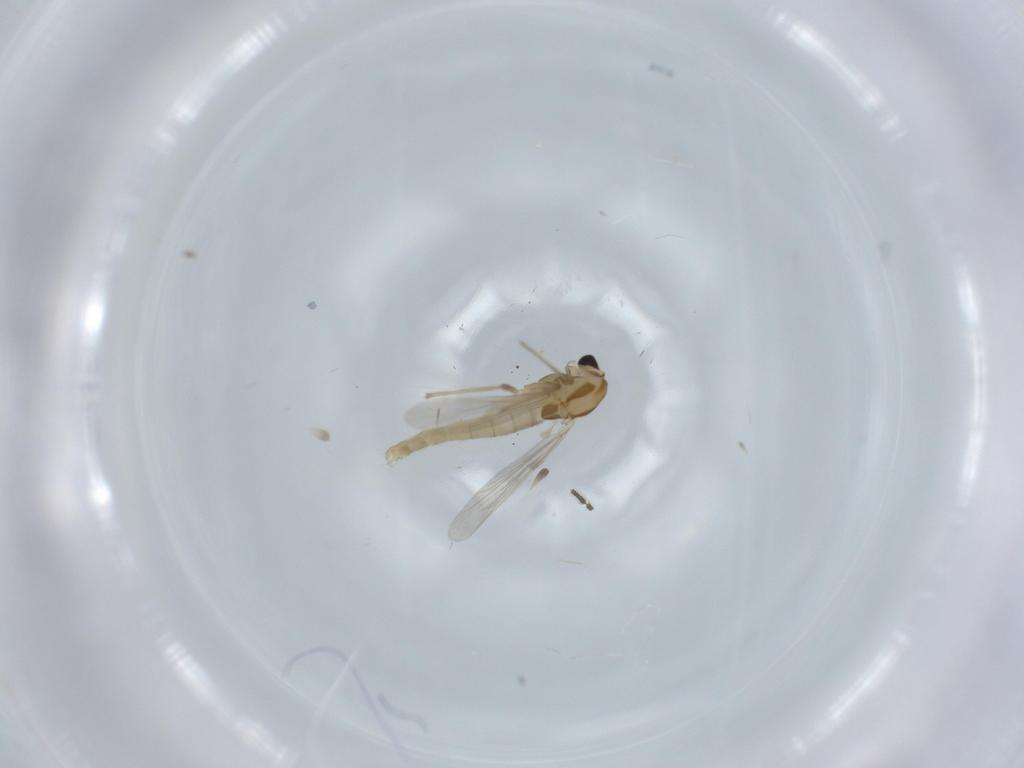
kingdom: Animalia
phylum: Arthropoda
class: Insecta
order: Diptera
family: Chironomidae
